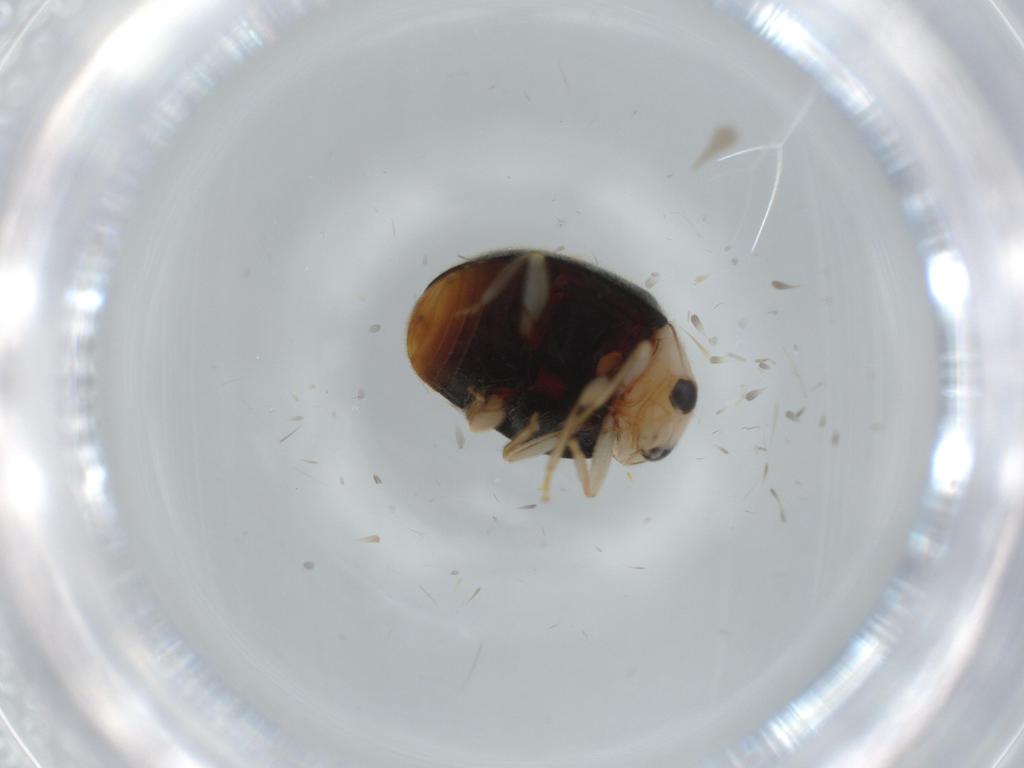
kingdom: Animalia
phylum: Arthropoda
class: Insecta
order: Coleoptera
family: Coccinellidae
